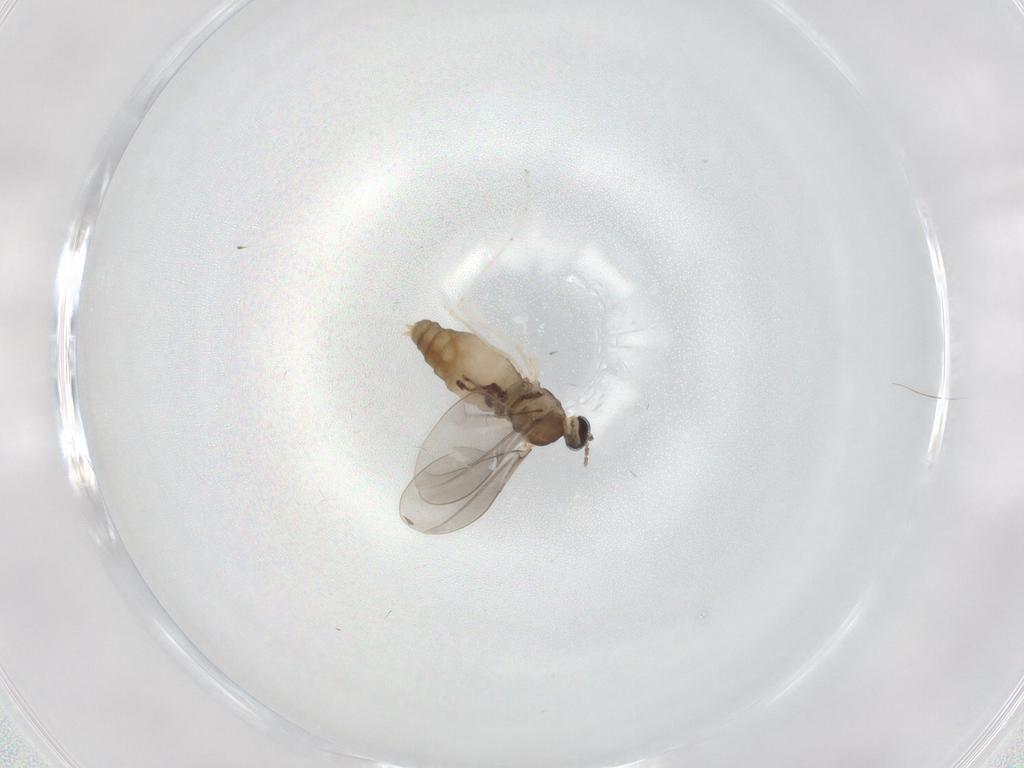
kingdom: Animalia
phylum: Arthropoda
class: Insecta
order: Diptera
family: Cecidomyiidae
